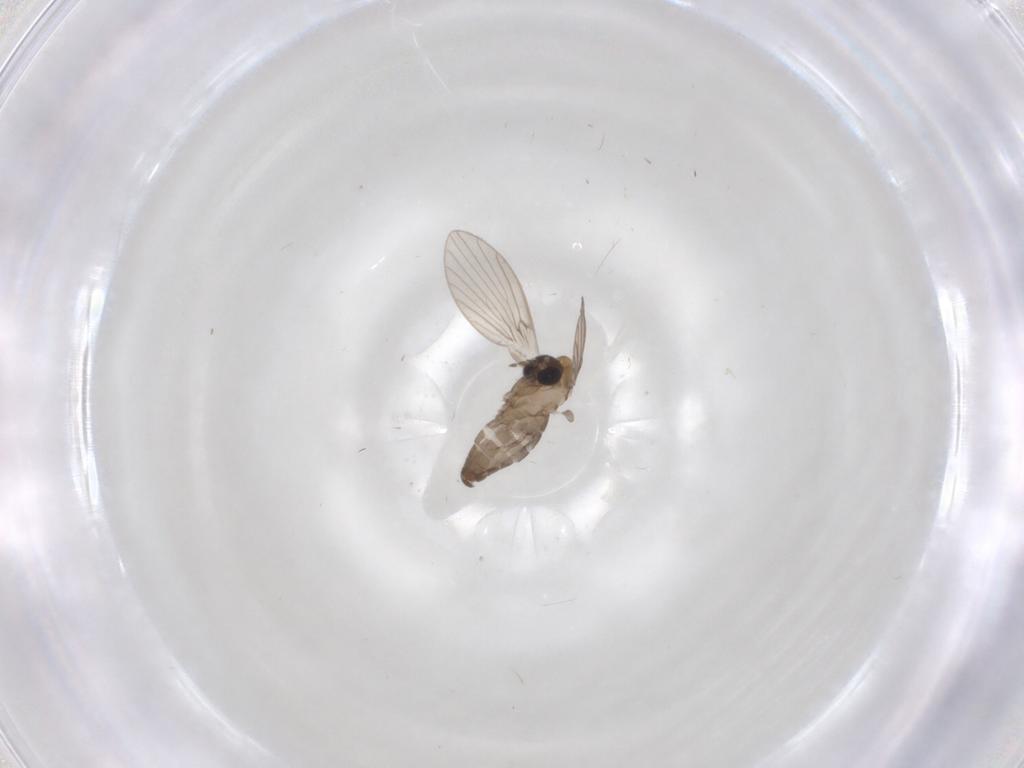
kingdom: Animalia
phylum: Arthropoda
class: Insecta
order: Diptera
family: Psychodidae
